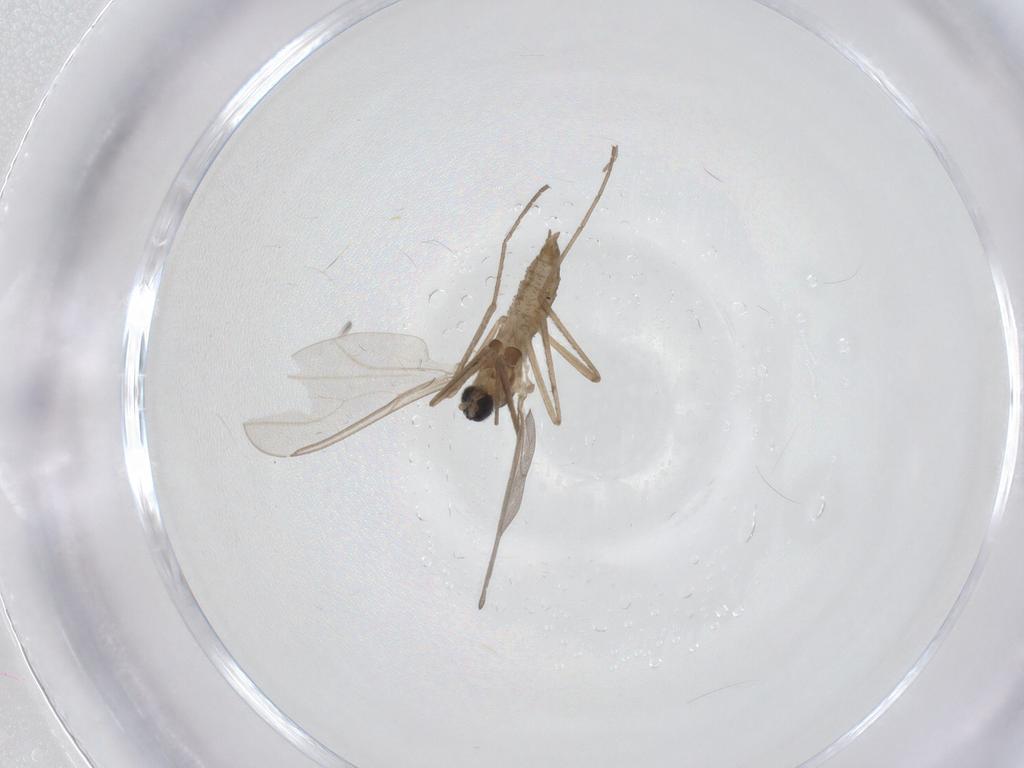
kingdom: Animalia
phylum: Arthropoda
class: Insecta
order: Diptera
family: Cecidomyiidae
